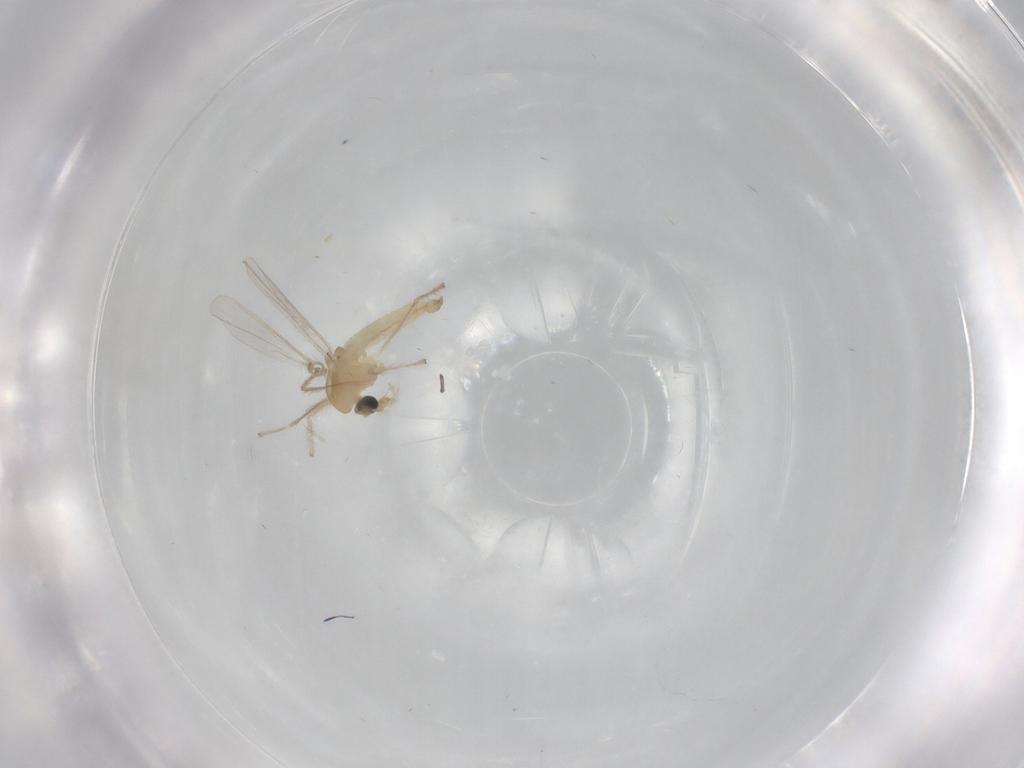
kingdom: Animalia
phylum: Arthropoda
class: Insecta
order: Diptera
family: Chironomidae
